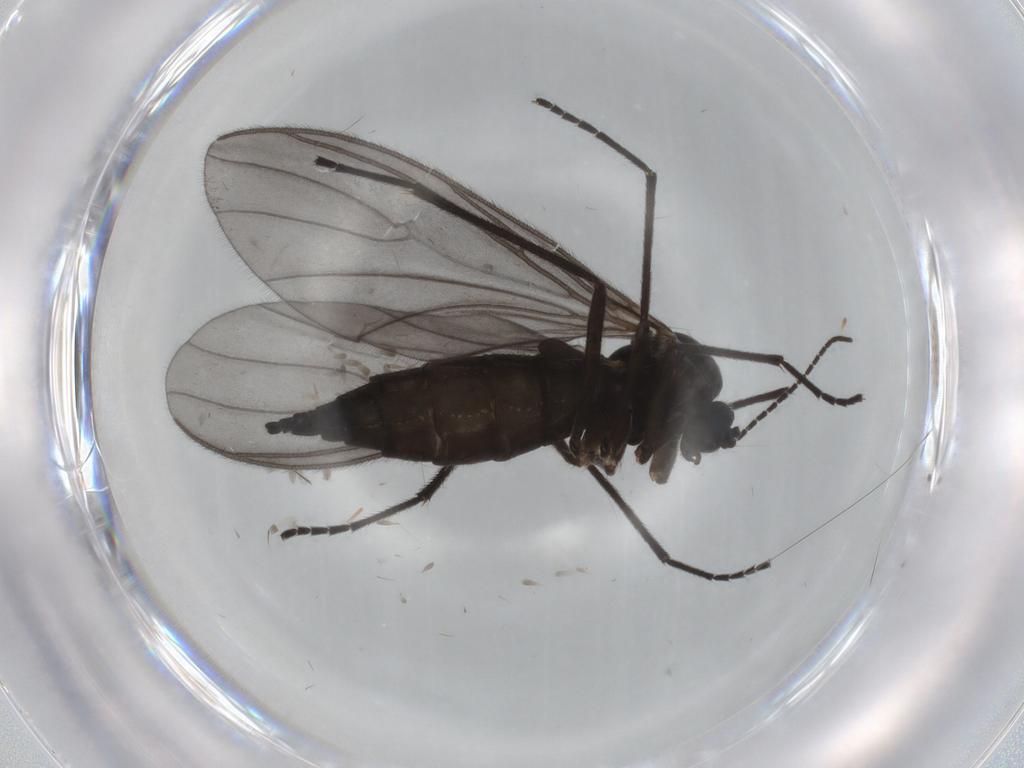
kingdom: Animalia
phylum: Arthropoda
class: Insecta
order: Diptera
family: Sciaridae
